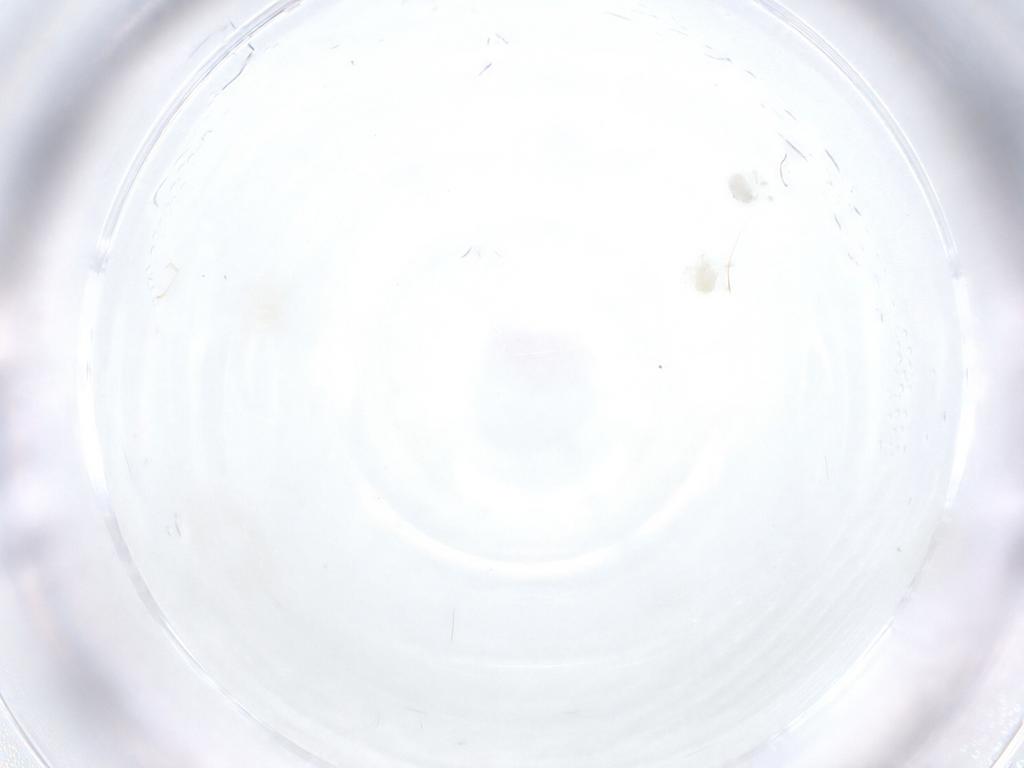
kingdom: Animalia
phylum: Arthropoda
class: Arachnida
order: Trombidiformes
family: Anystidae
